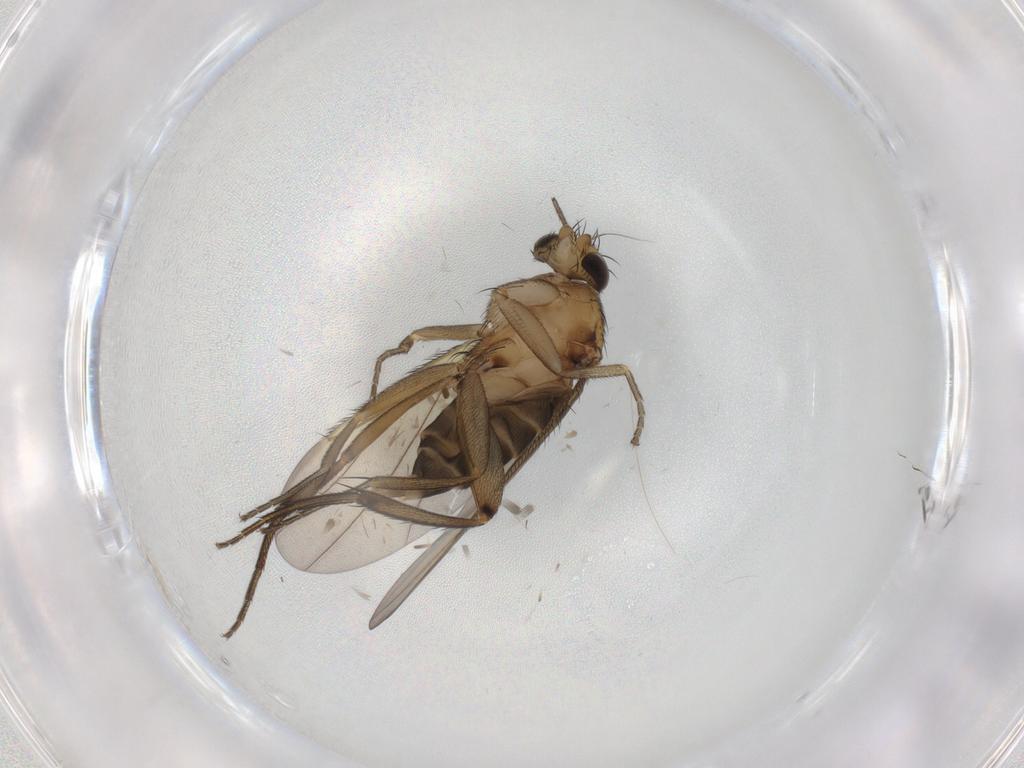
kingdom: Animalia
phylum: Arthropoda
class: Insecta
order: Diptera
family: Phoridae
